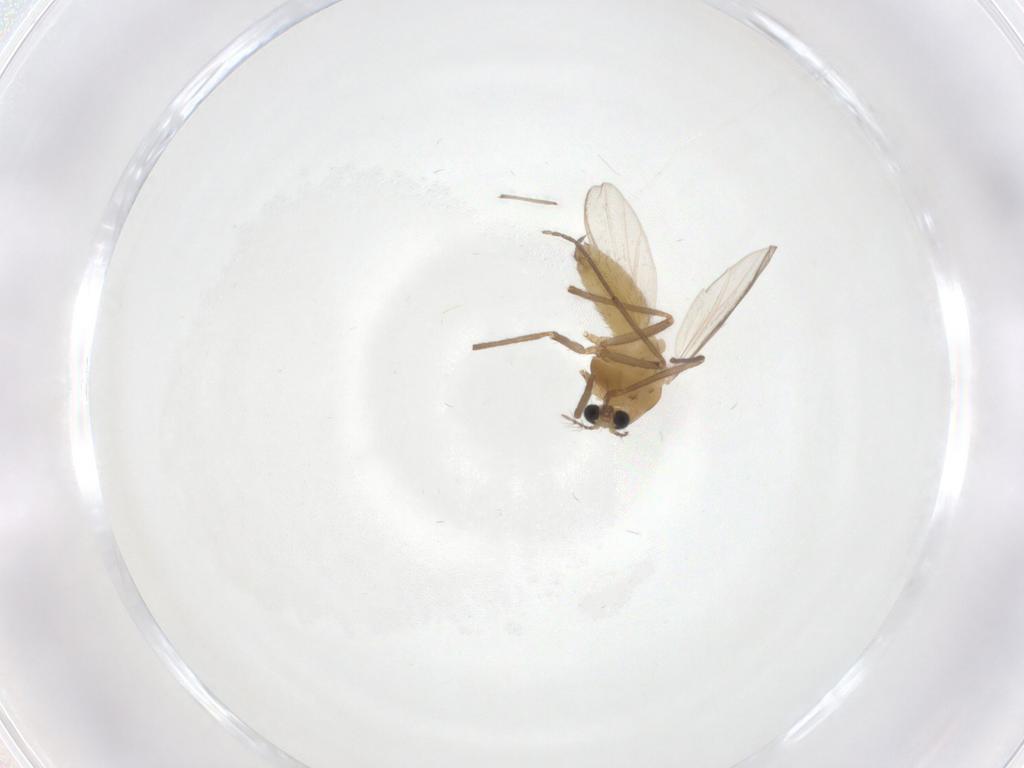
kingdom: Animalia
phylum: Arthropoda
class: Insecta
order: Diptera
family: Chironomidae
